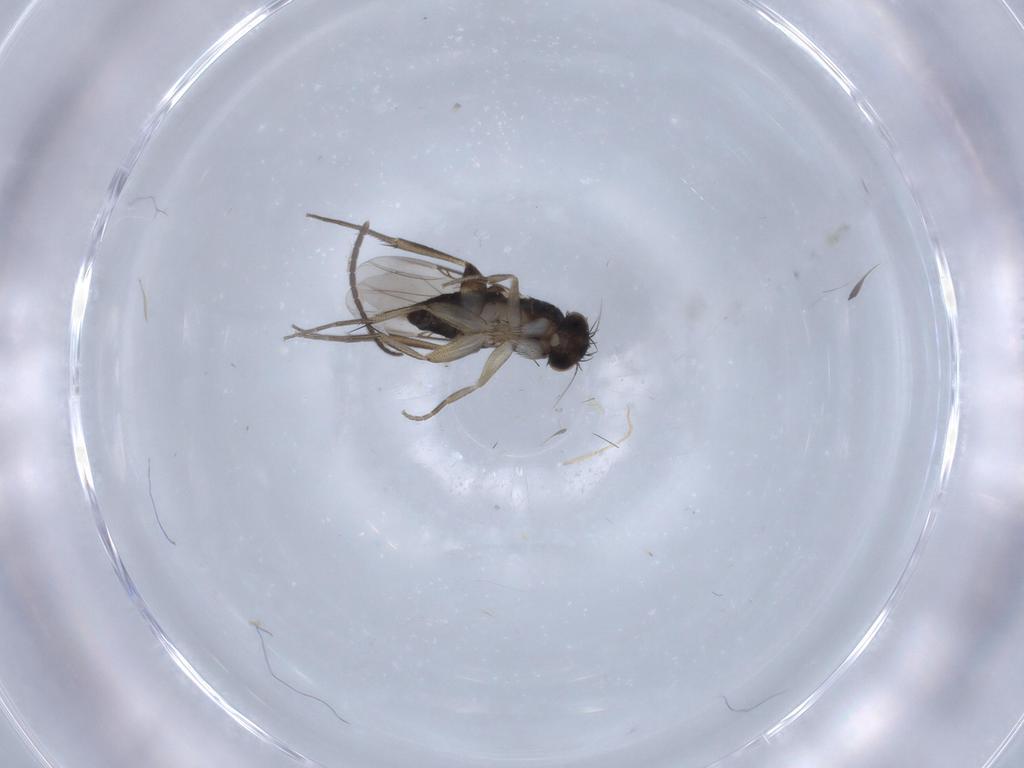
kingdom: Animalia
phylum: Arthropoda
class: Insecta
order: Diptera
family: Phoridae
